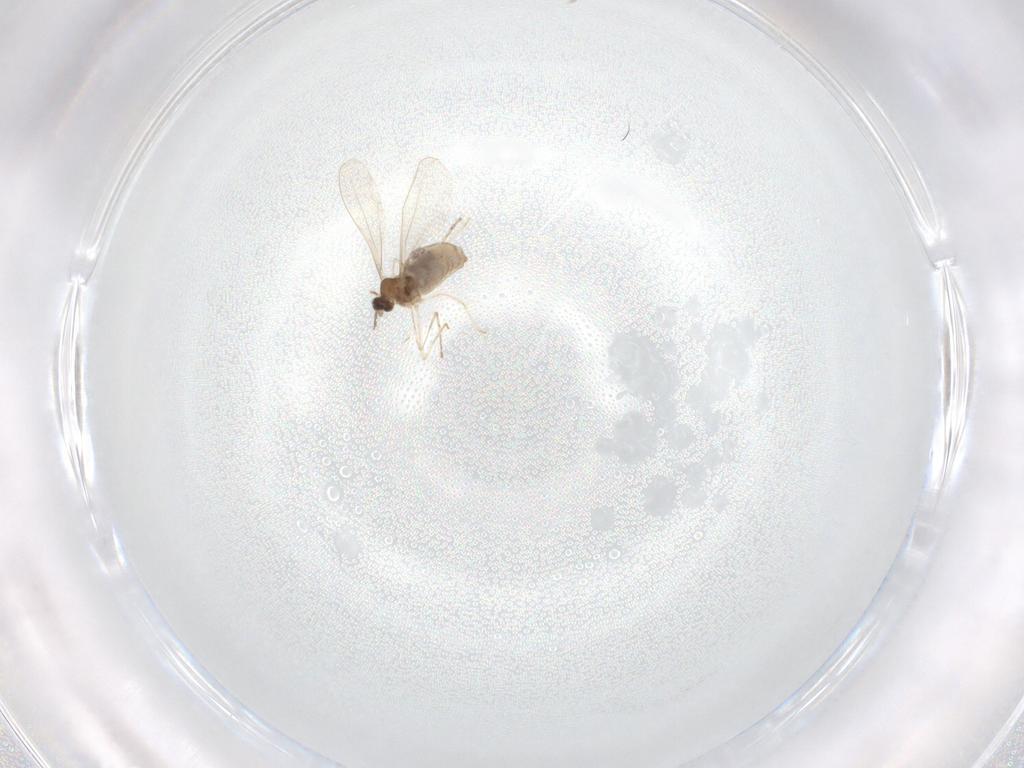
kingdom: Animalia
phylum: Arthropoda
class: Insecta
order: Diptera
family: Cecidomyiidae
